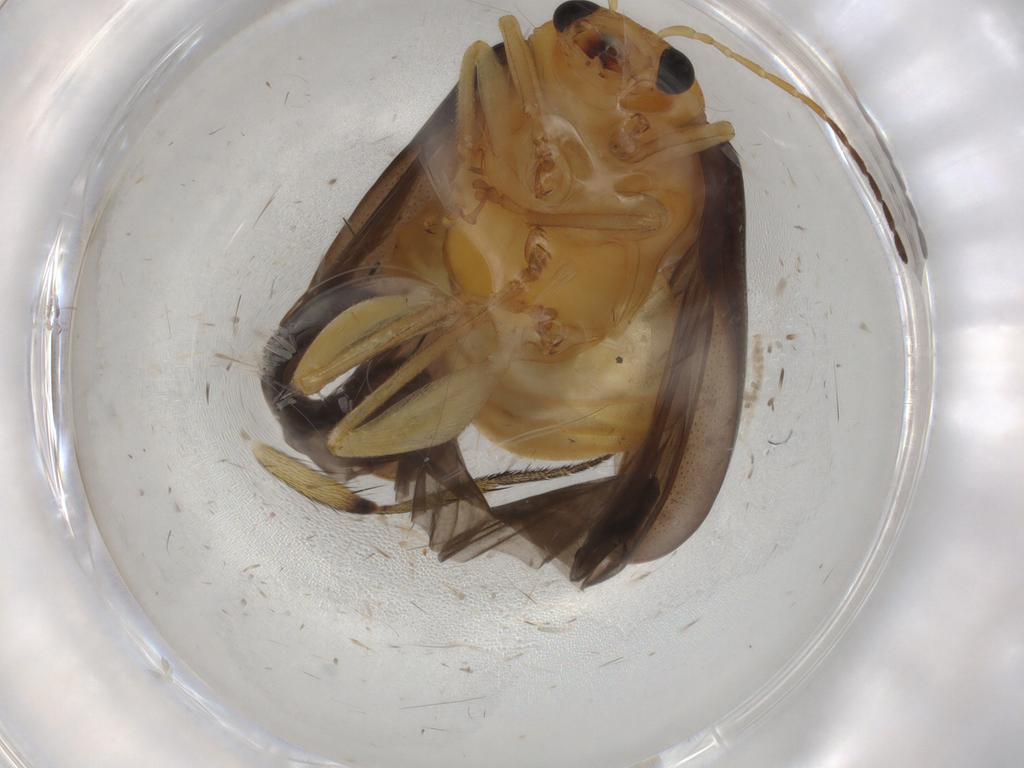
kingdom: Animalia
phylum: Arthropoda
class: Insecta
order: Coleoptera
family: Chrysomelidae
